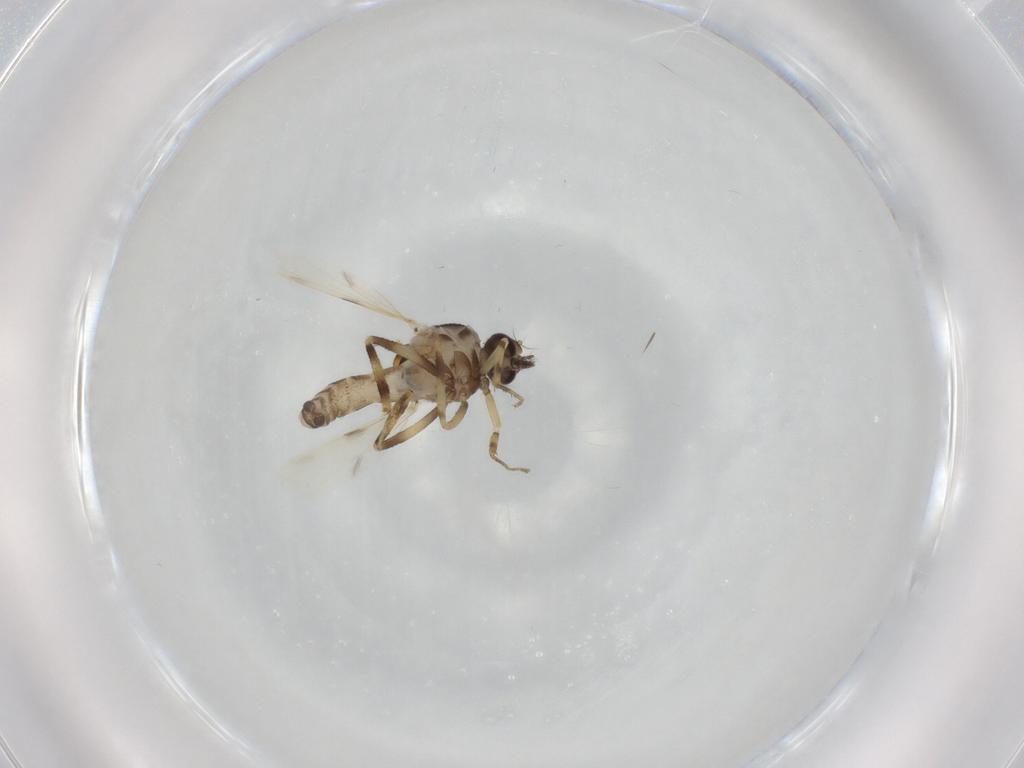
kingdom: Animalia
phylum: Arthropoda
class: Insecta
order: Diptera
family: Ceratopogonidae
